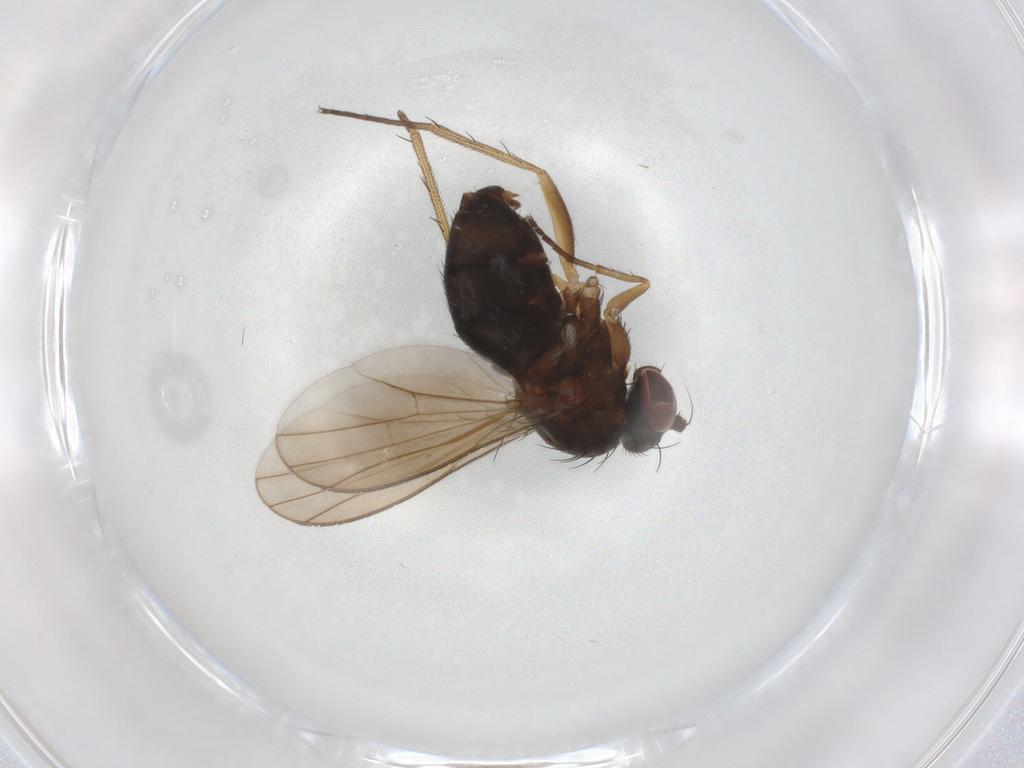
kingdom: Animalia
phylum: Arthropoda
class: Insecta
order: Diptera
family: Dolichopodidae
